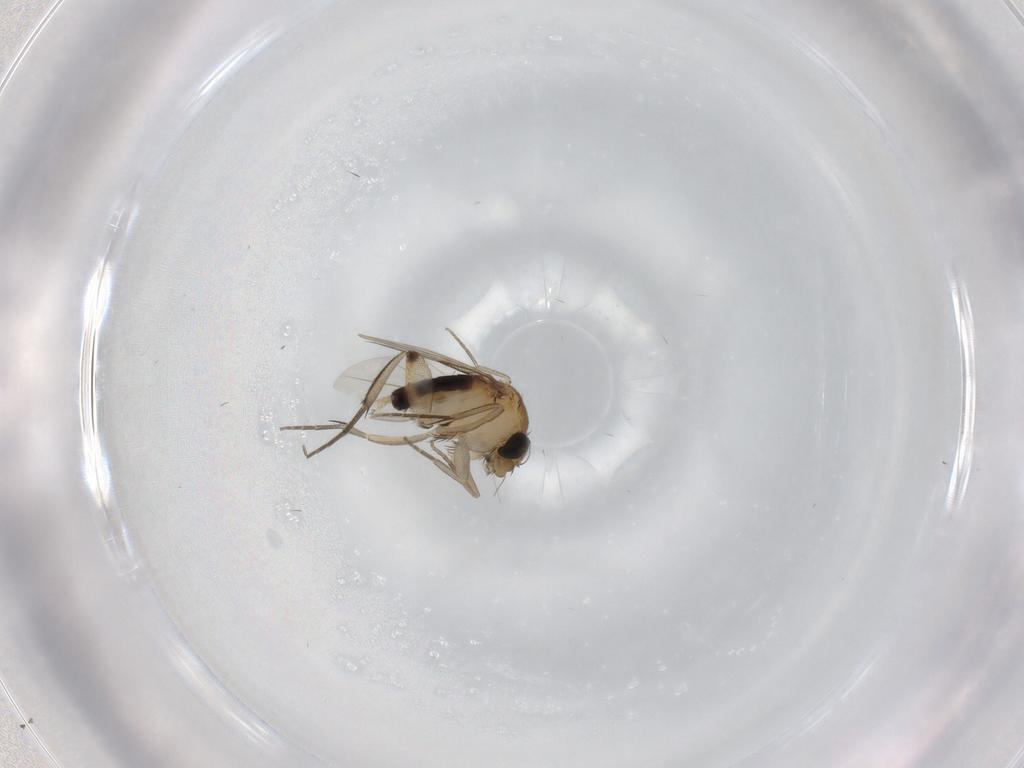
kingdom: Animalia
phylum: Arthropoda
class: Insecta
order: Diptera
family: Phoridae
